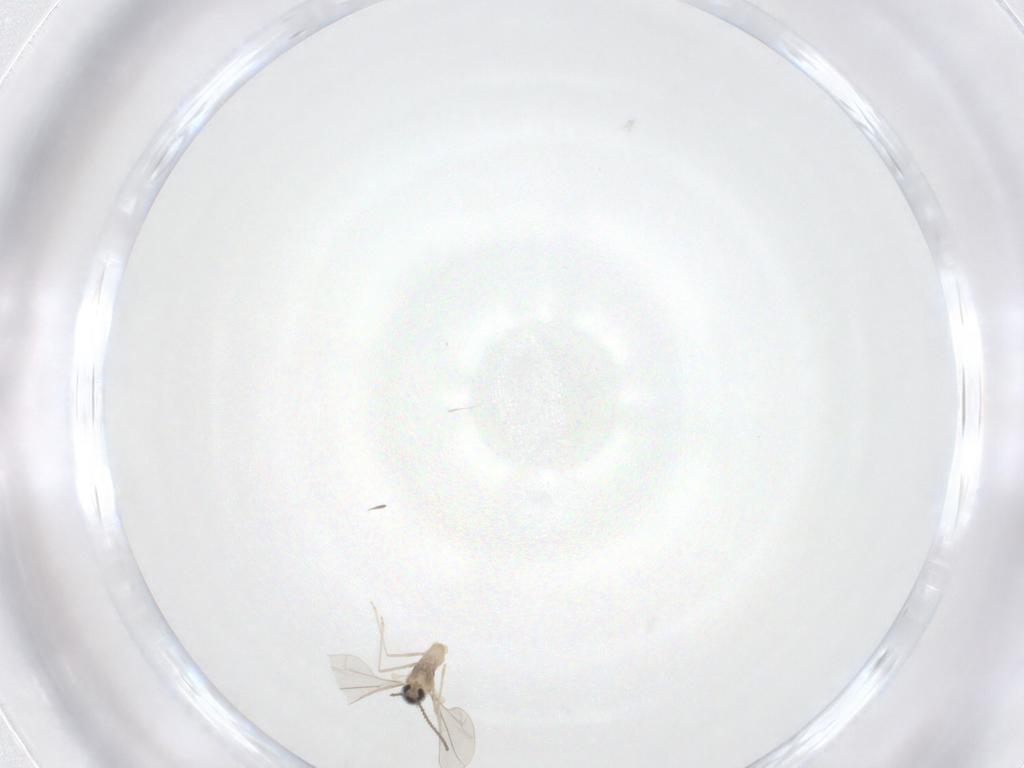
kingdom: Animalia
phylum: Arthropoda
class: Insecta
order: Diptera
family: Cecidomyiidae
